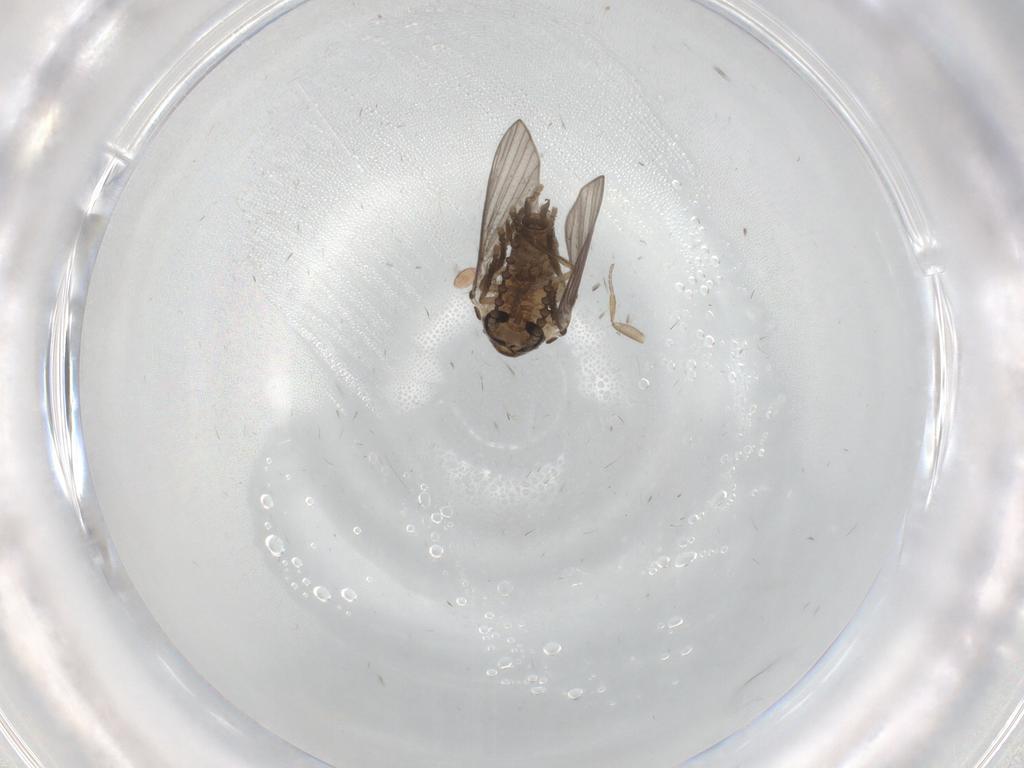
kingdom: Animalia
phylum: Arthropoda
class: Insecta
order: Diptera
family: Psychodidae
